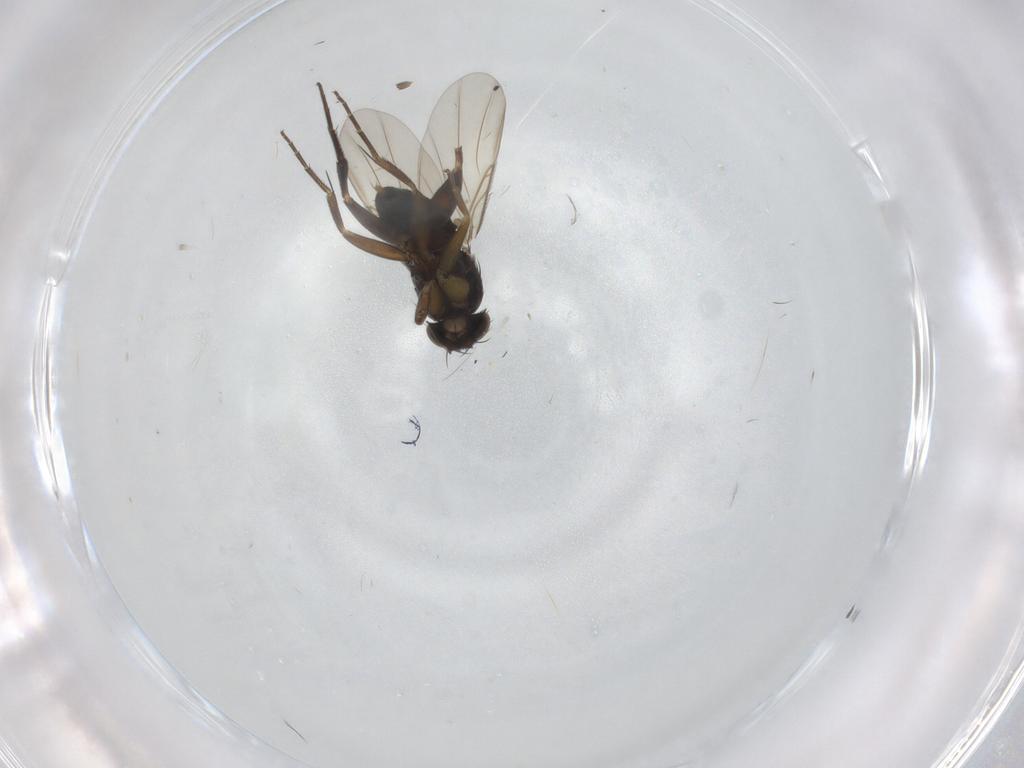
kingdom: Animalia
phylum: Arthropoda
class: Insecta
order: Diptera
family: Phoridae
